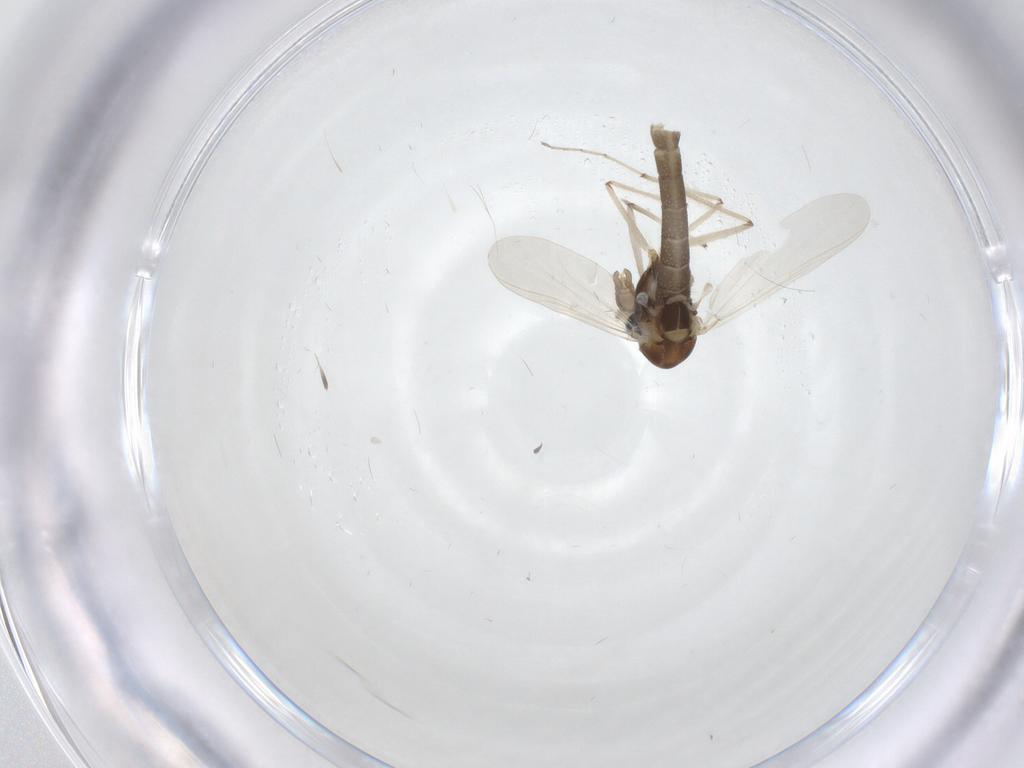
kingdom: Animalia
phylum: Arthropoda
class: Insecta
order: Diptera
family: Chironomidae
